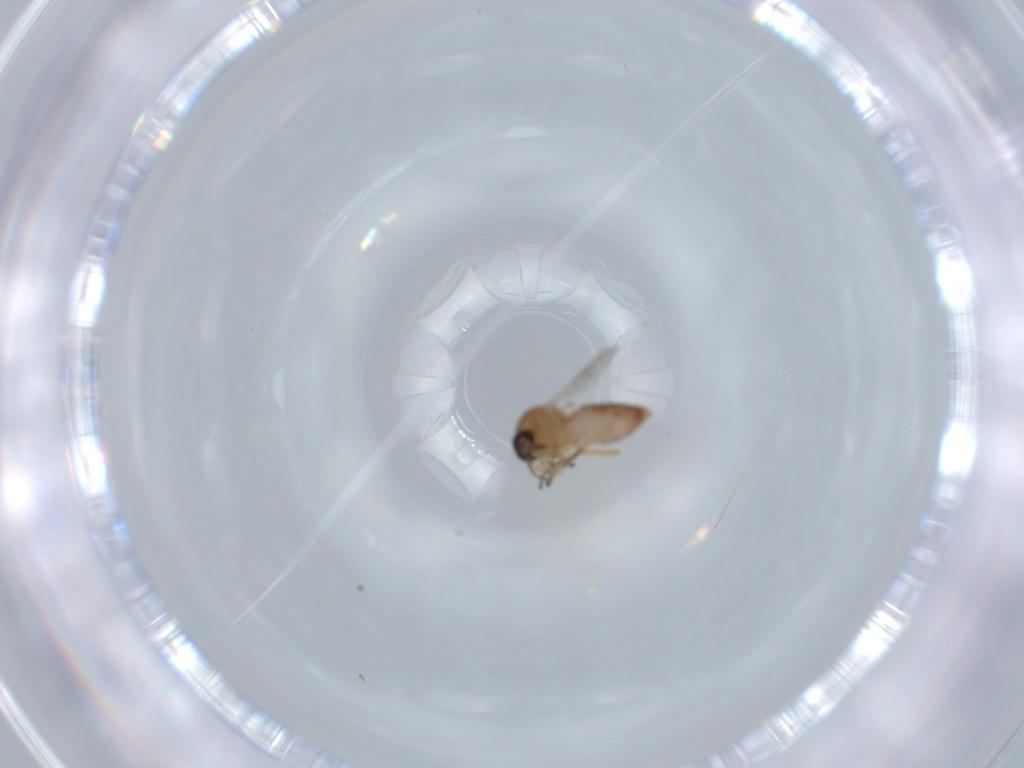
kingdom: Animalia
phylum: Arthropoda
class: Insecta
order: Diptera
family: Ceratopogonidae
